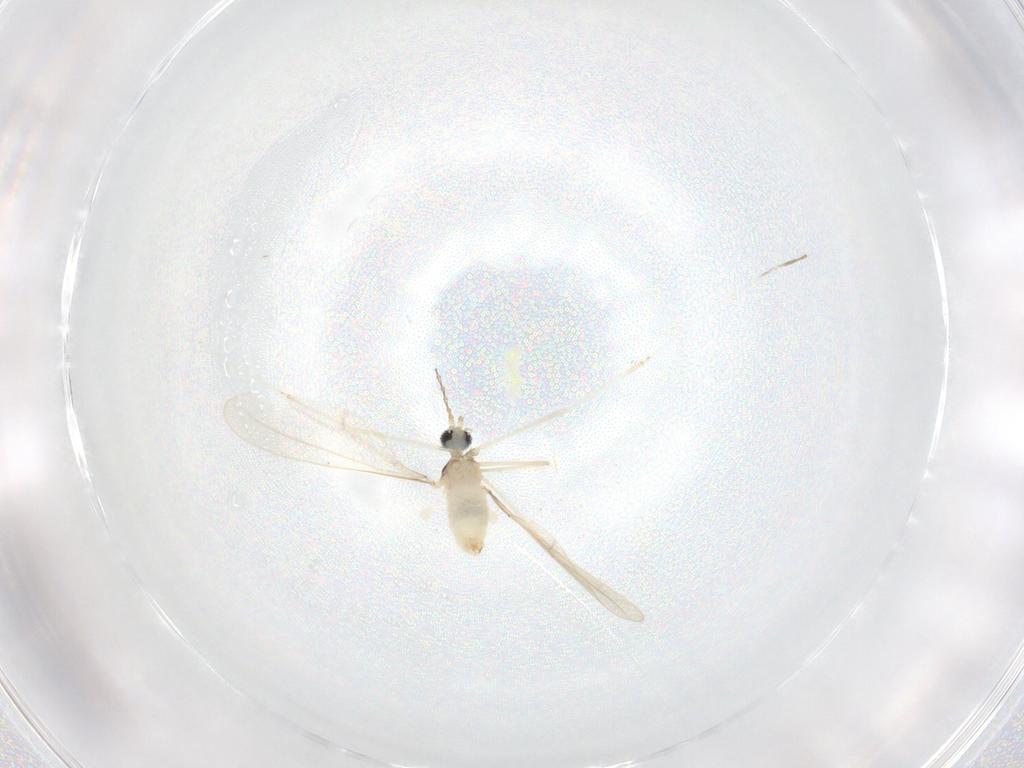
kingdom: Animalia
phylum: Arthropoda
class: Insecta
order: Diptera
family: Cecidomyiidae
